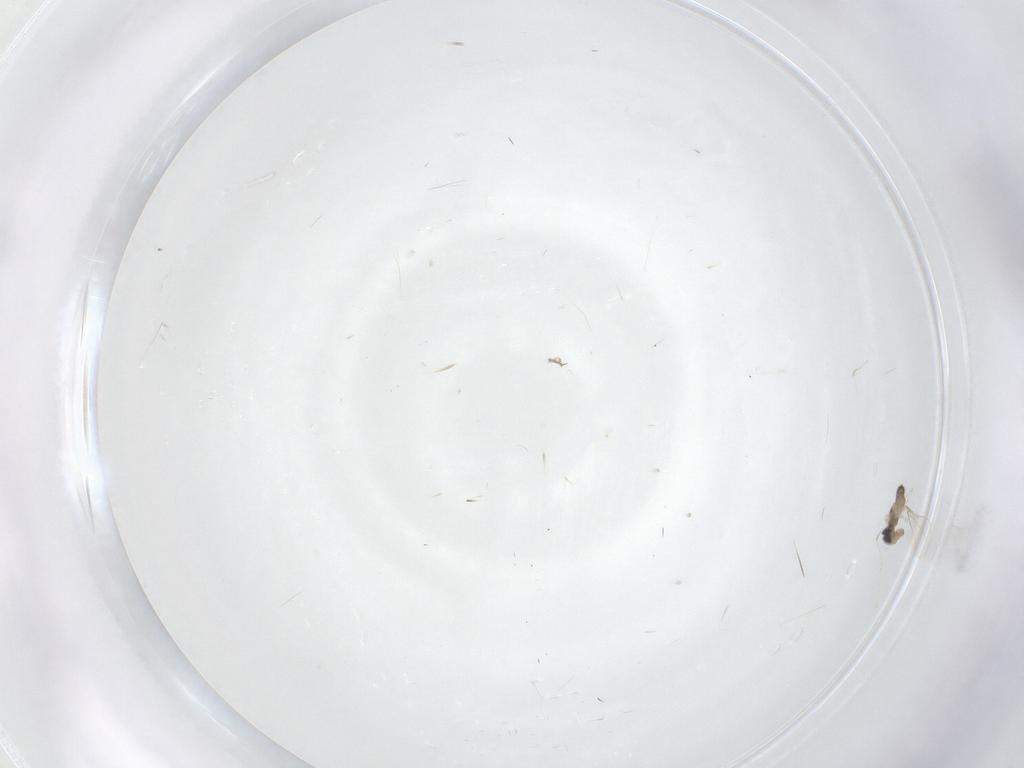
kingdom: Animalia
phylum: Arthropoda
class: Insecta
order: Diptera
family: Cecidomyiidae
